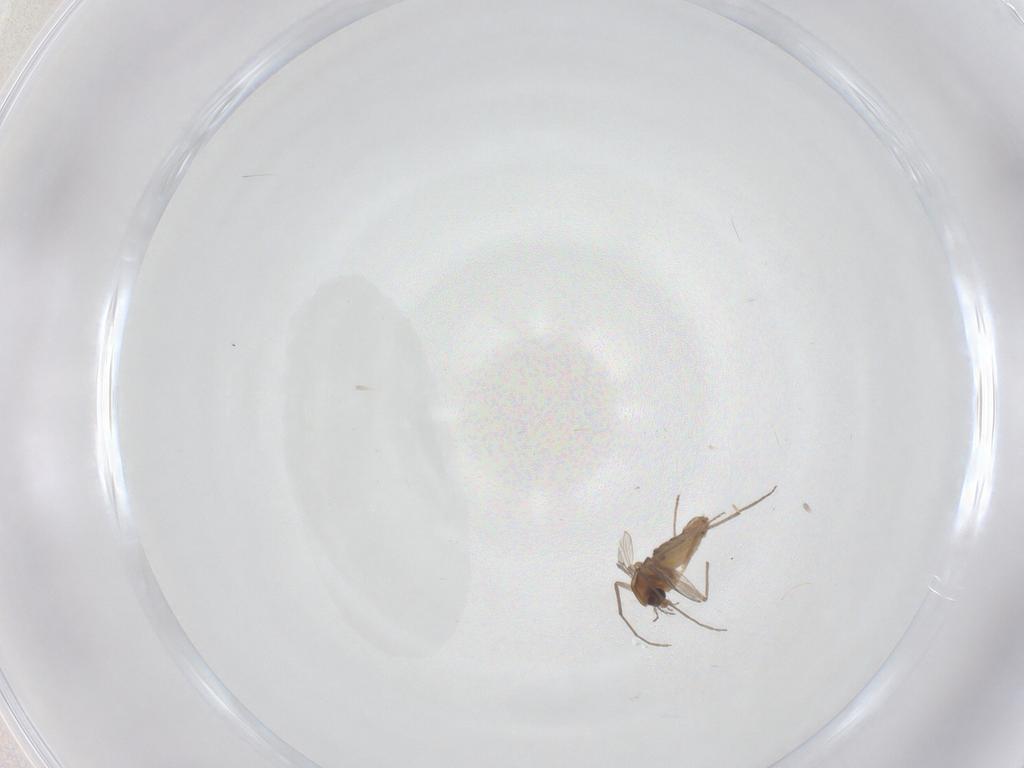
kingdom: Animalia
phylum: Arthropoda
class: Insecta
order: Diptera
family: Chironomidae
